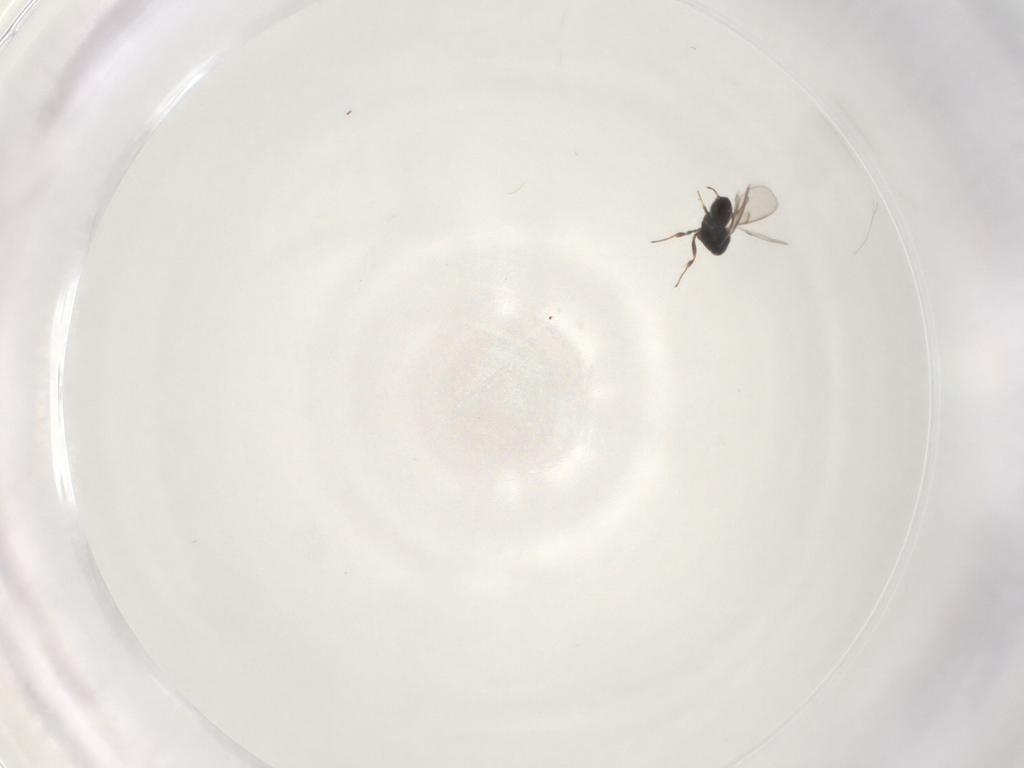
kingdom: Animalia
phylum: Arthropoda
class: Insecta
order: Hymenoptera
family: Scelionidae
